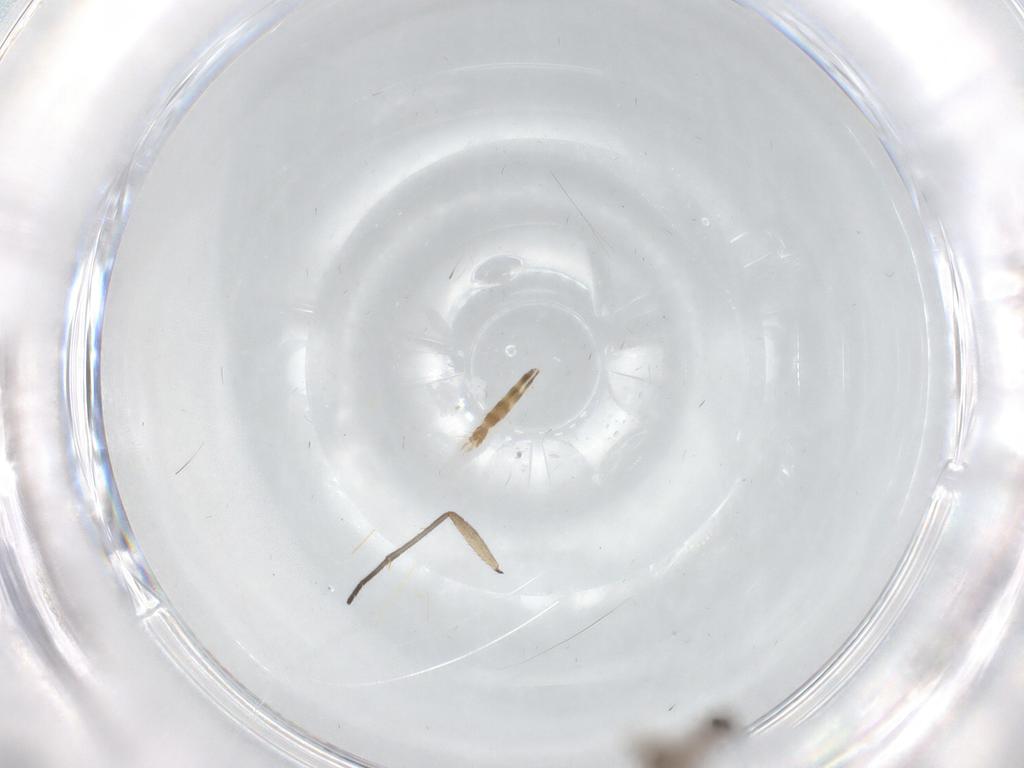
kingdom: Animalia
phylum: Arthropoda
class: Insecta
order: Diptera
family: Chironomidae
